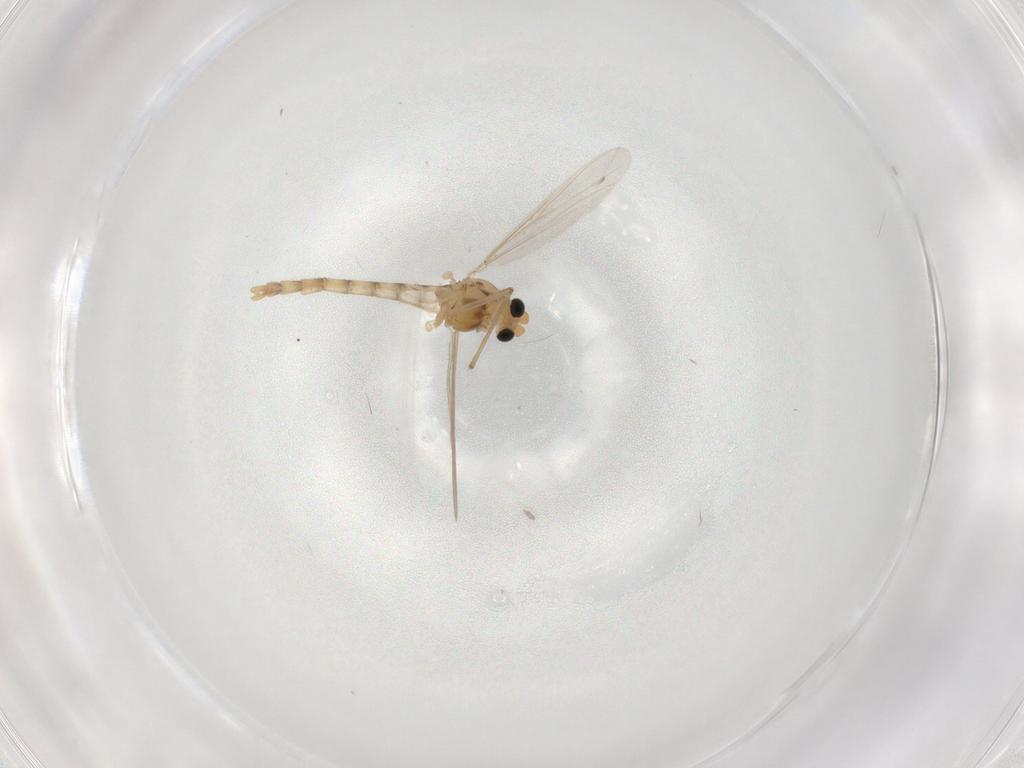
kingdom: Animalia
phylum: Arthropoda
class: Insecta
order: Diptera
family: Chironomidae
